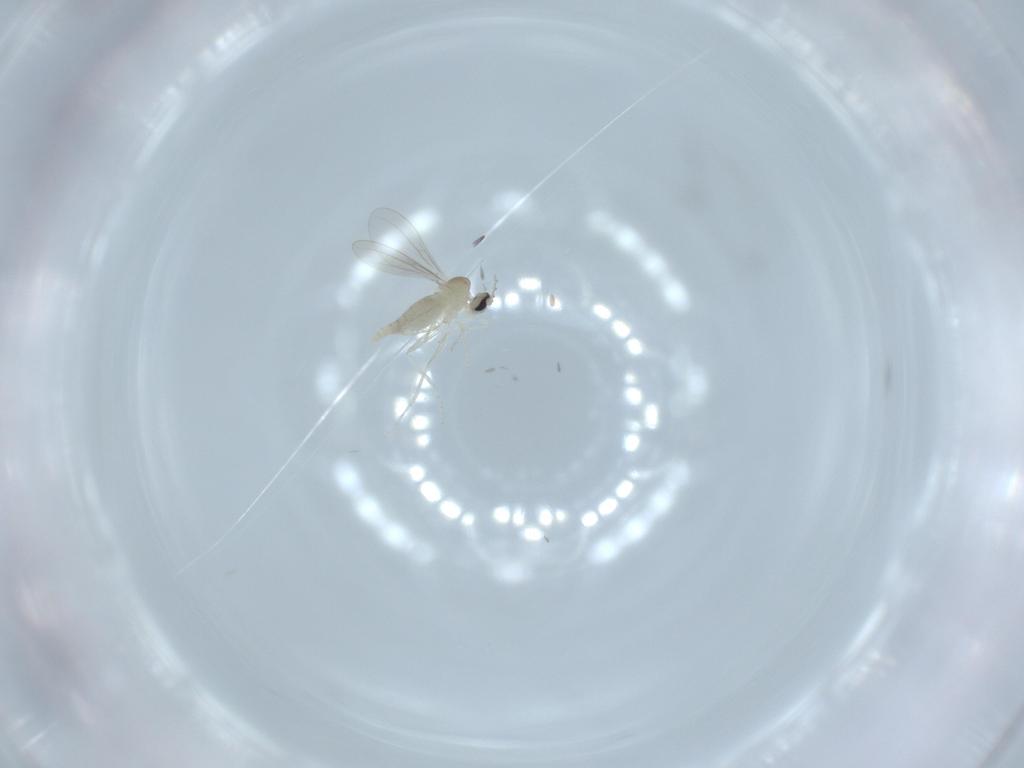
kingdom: Animalia
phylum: Arthropoda
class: Insecta
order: Diptera
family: Cecidomyiidae
